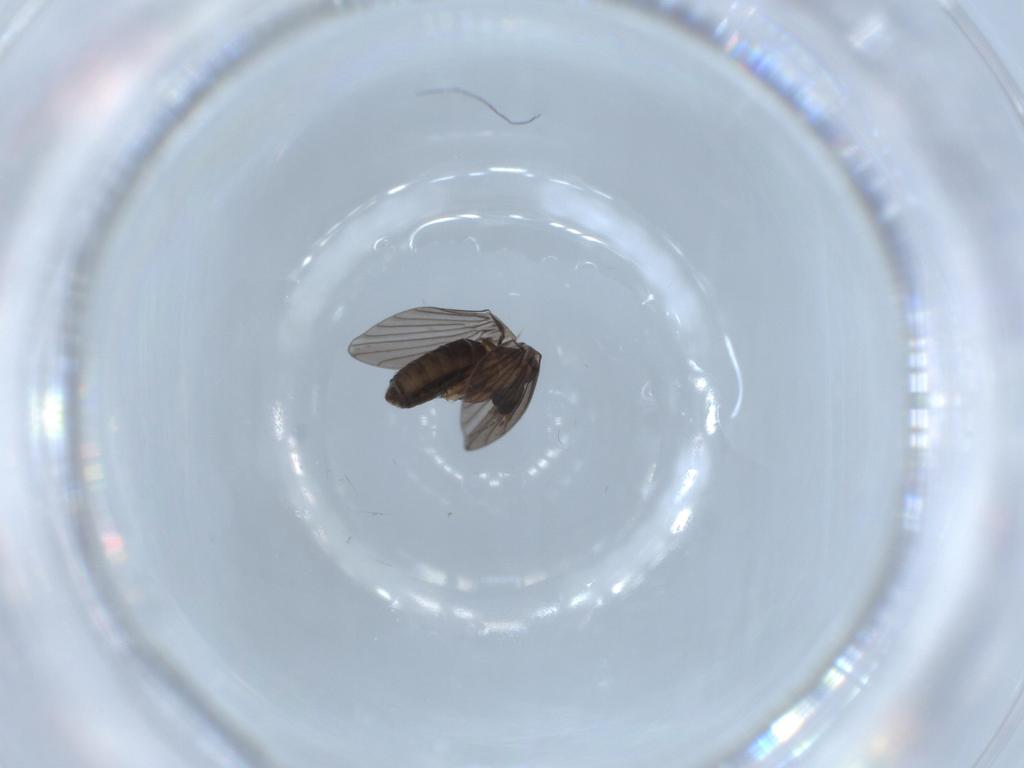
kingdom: Animalia
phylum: Arthropoda
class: Insecta
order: Diptera
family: Psychodidae
